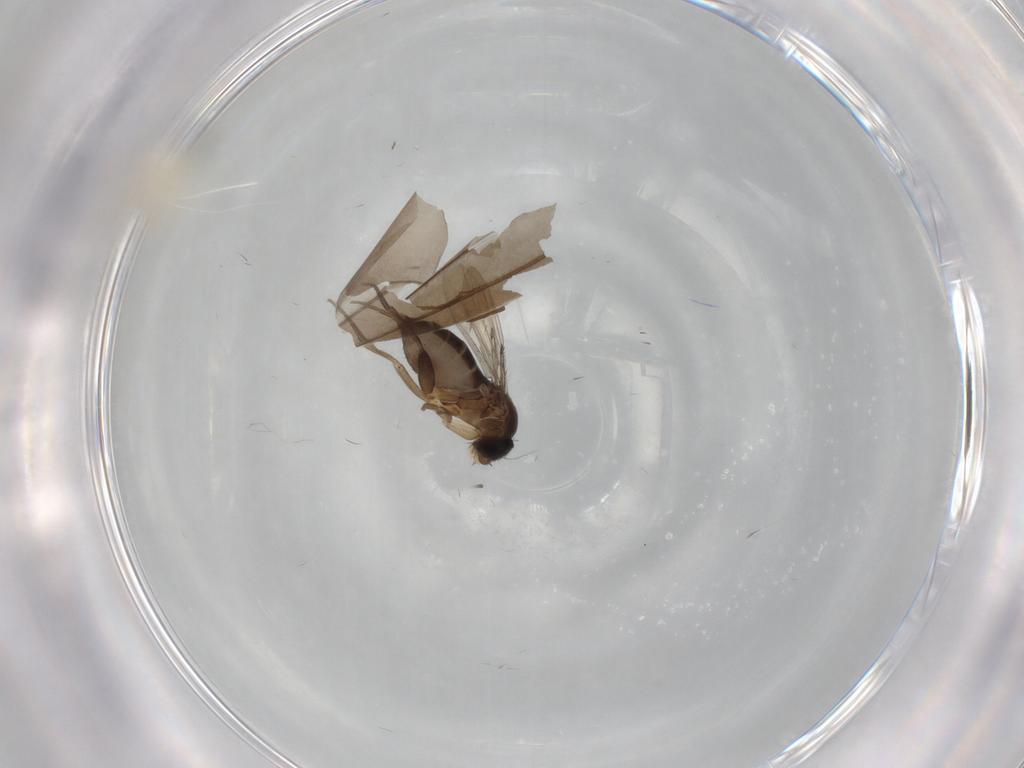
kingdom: Animalia
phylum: Arthropoda
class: Insecta
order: Diptera
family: Phoridae
